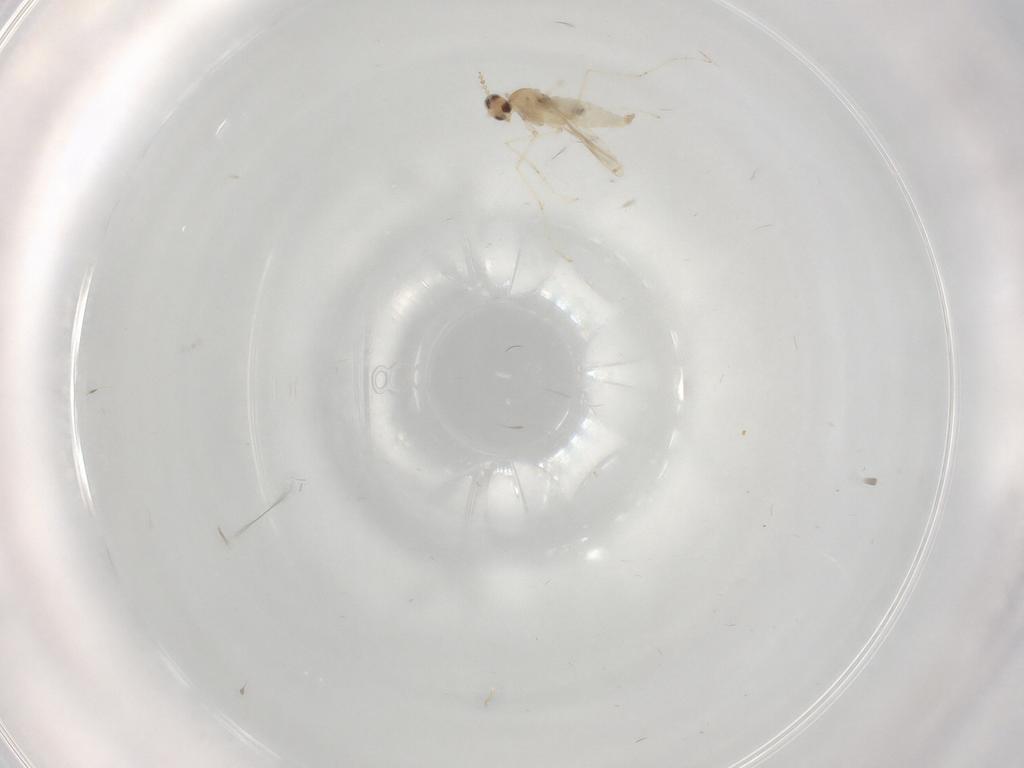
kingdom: Animalia
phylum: Arthropoda
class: Insecta
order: Diptera
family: Cecidomyiidae
